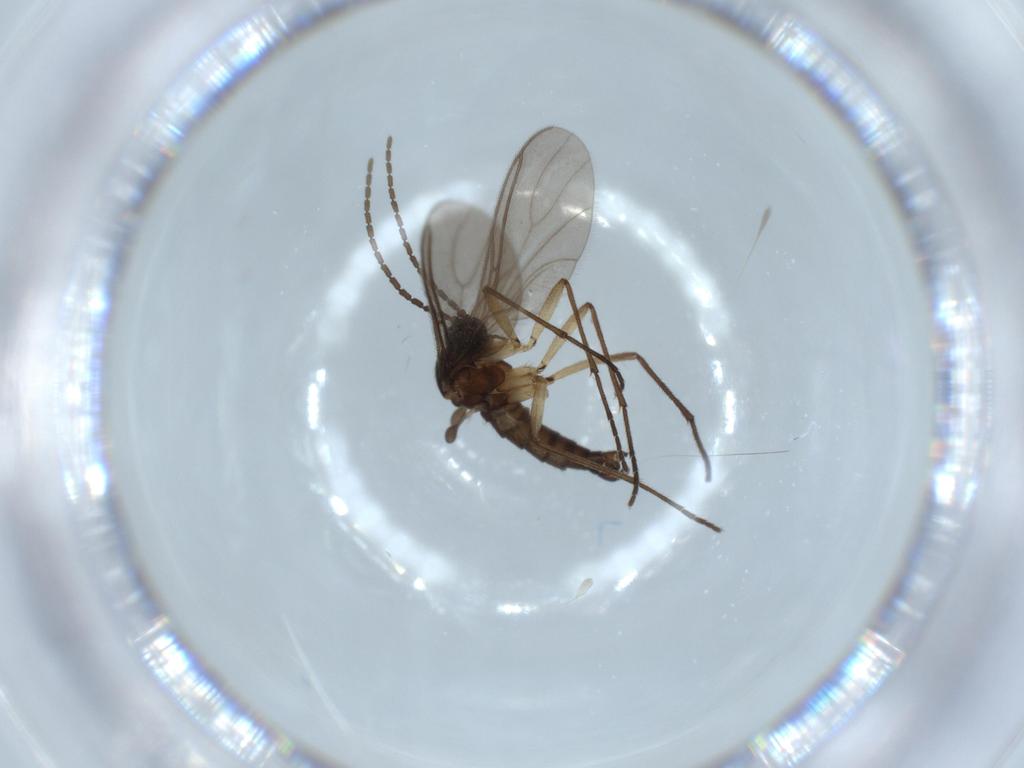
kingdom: Animalia
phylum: Arthropoda
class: Insecta
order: Diptera
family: Sciaridae
